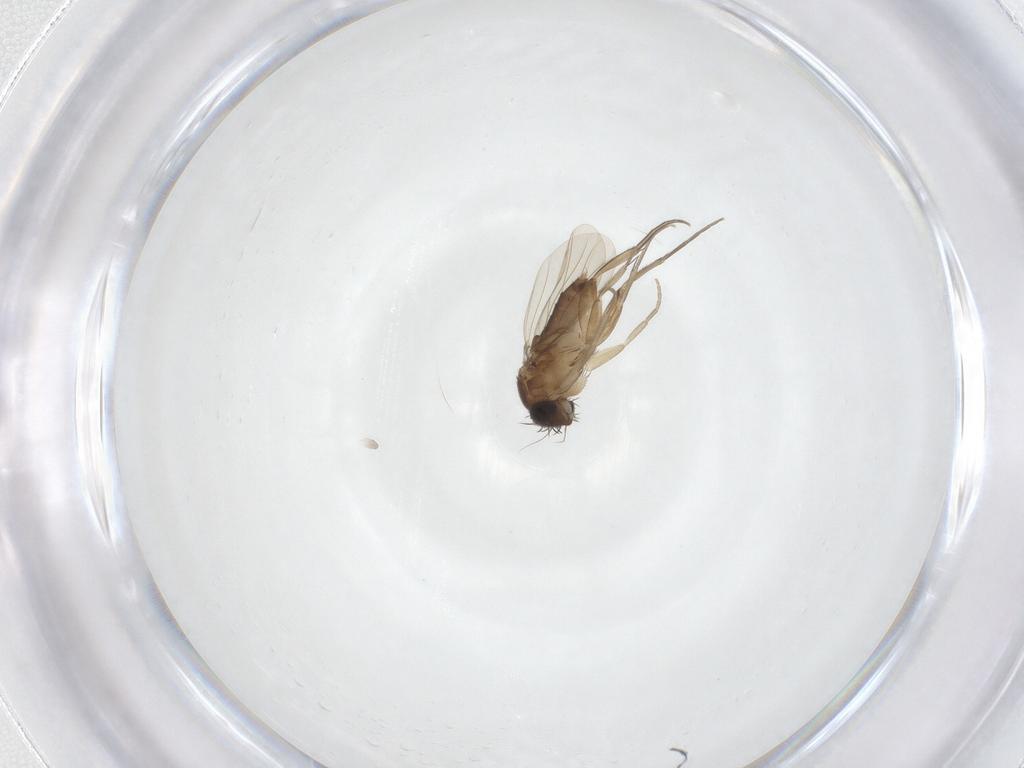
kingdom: Animalia
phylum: Arthropoda
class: Insecta
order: Diptera
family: Phoridae
